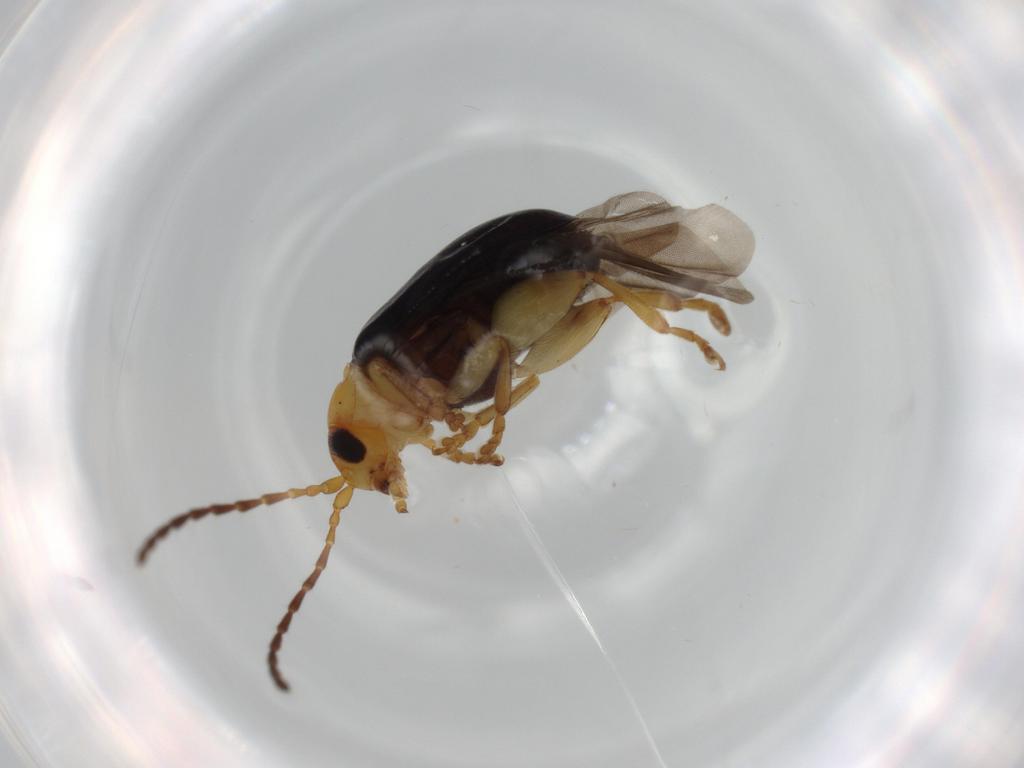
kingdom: Animalia
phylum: Arthropoda
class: Insecta
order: Coleoptera
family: Chrysomelidae
